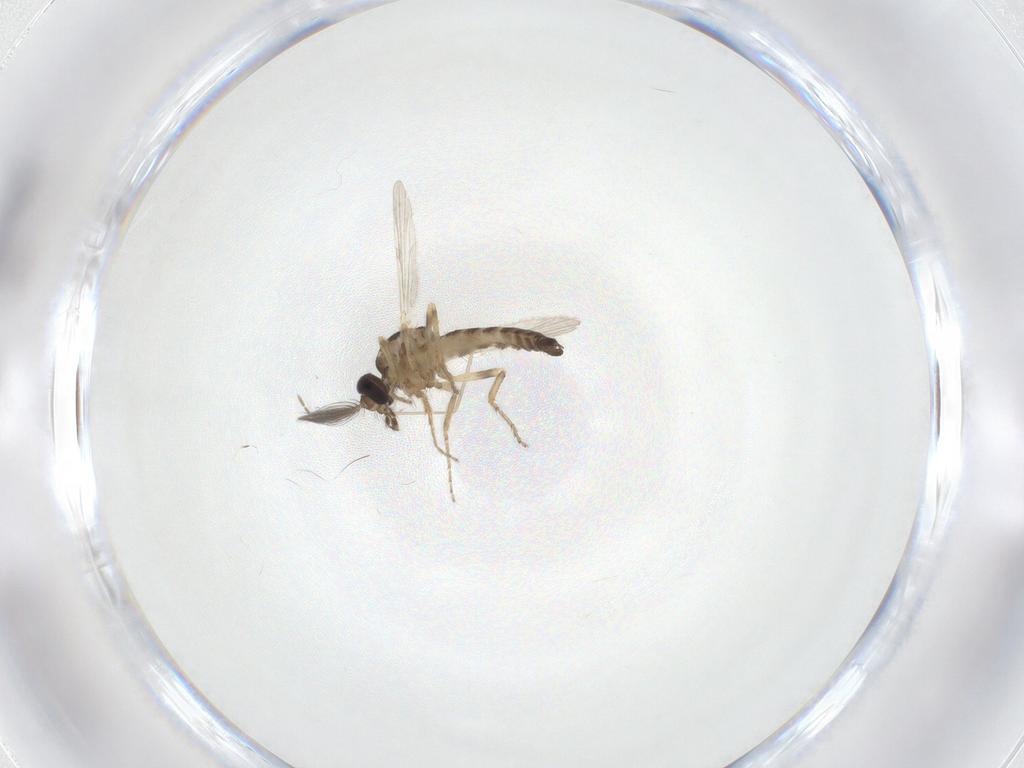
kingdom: Animalia
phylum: Arthropoda
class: Insecta
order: Diptera
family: Ceratopogonidae
